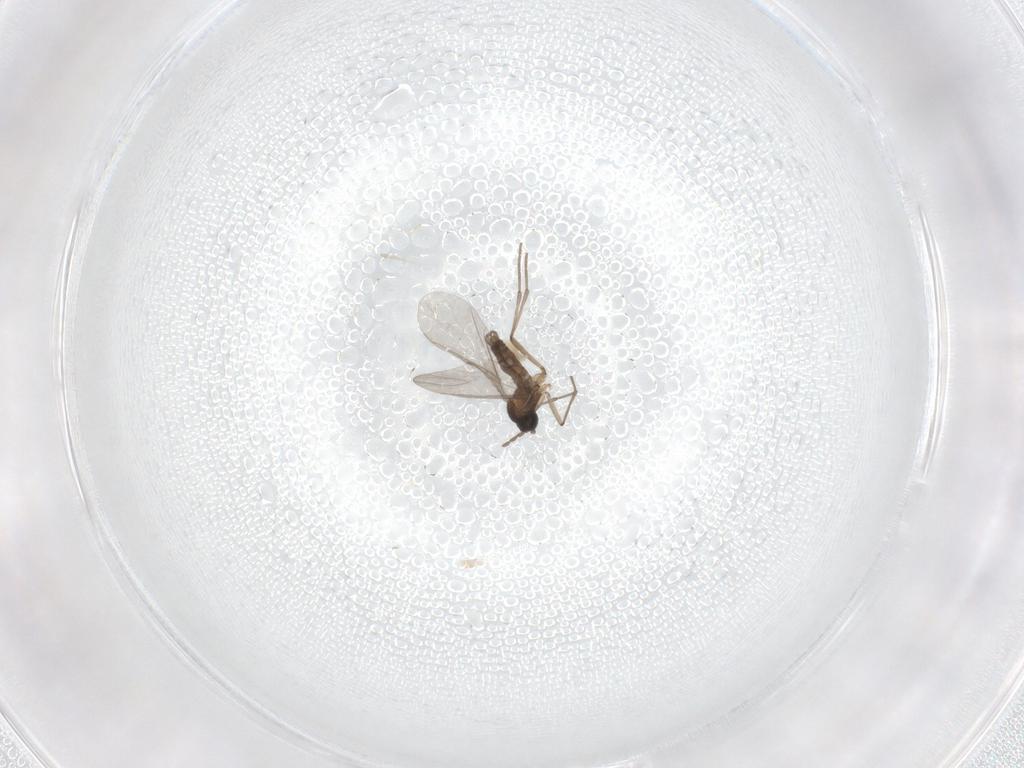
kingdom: Animalia
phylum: Arthropoda
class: Insecta
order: Diptera
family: Sciaridae
